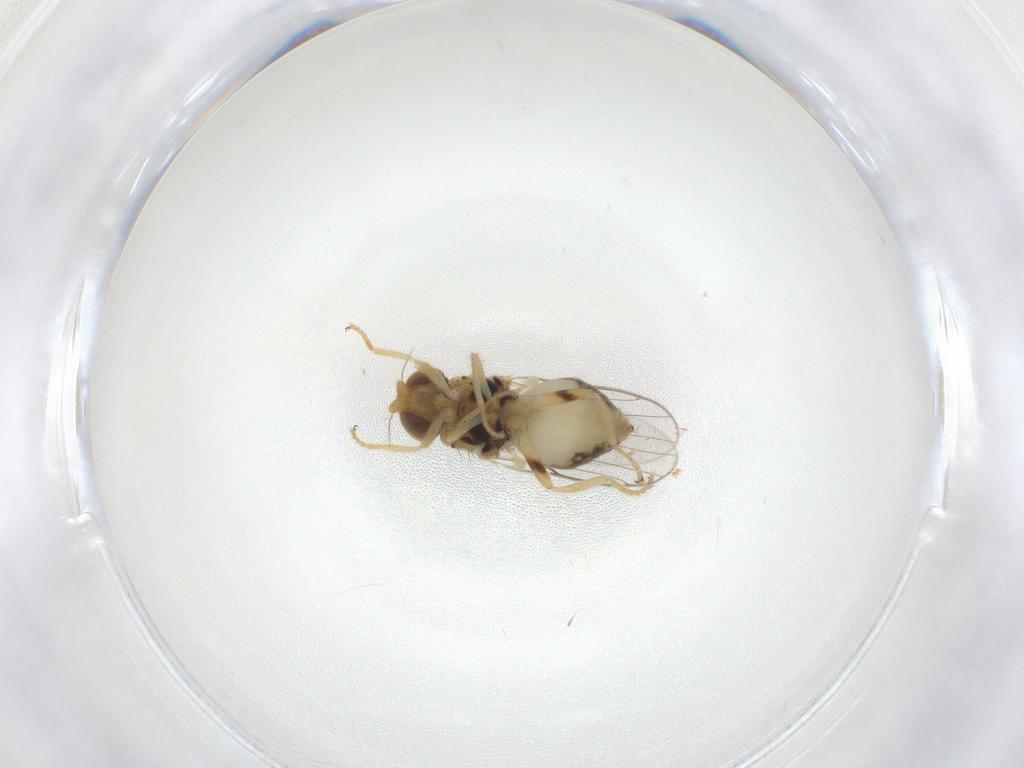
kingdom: Animalia
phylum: Arthropoda
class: Insecta
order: Diptera
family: Chloropidae
